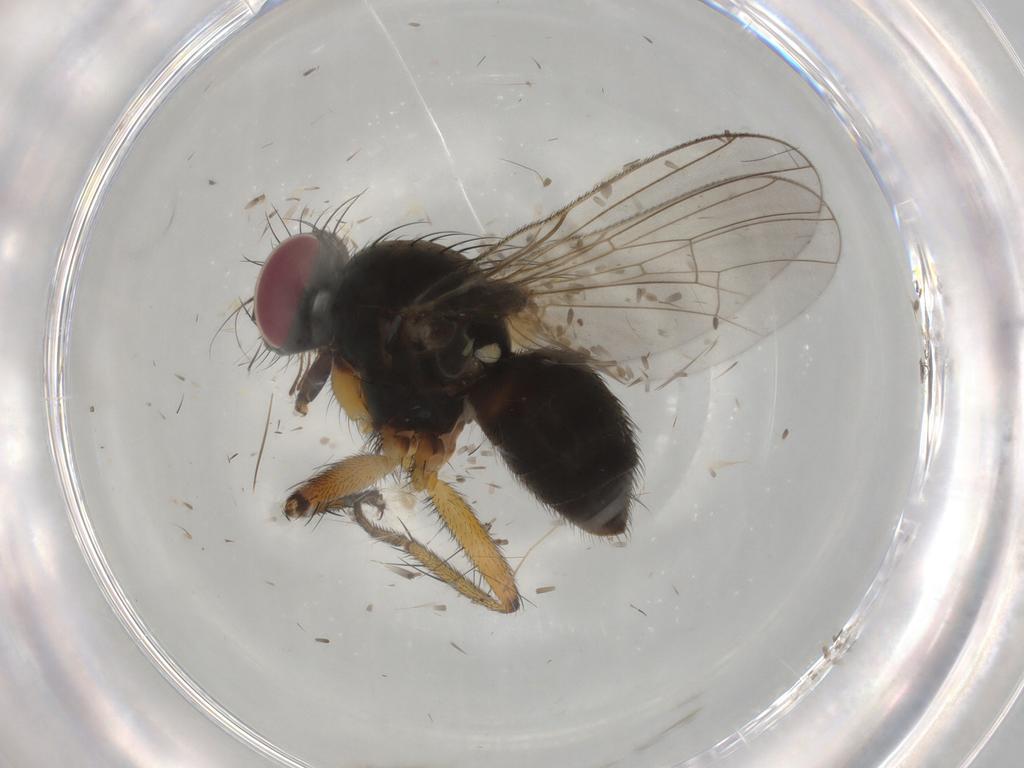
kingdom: Animalia
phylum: Arthropoda
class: Insecta
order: Diptera
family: Muscidae
